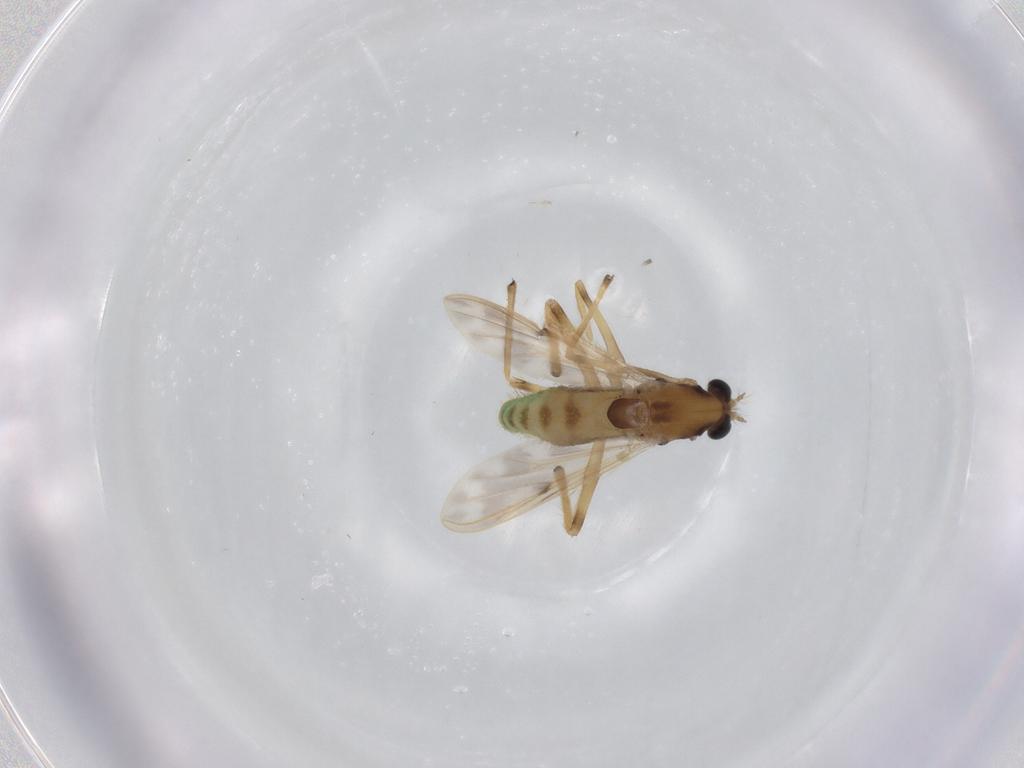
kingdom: Animalia
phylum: Arthropoda
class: Insecta
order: Diptera
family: Chironomidae
